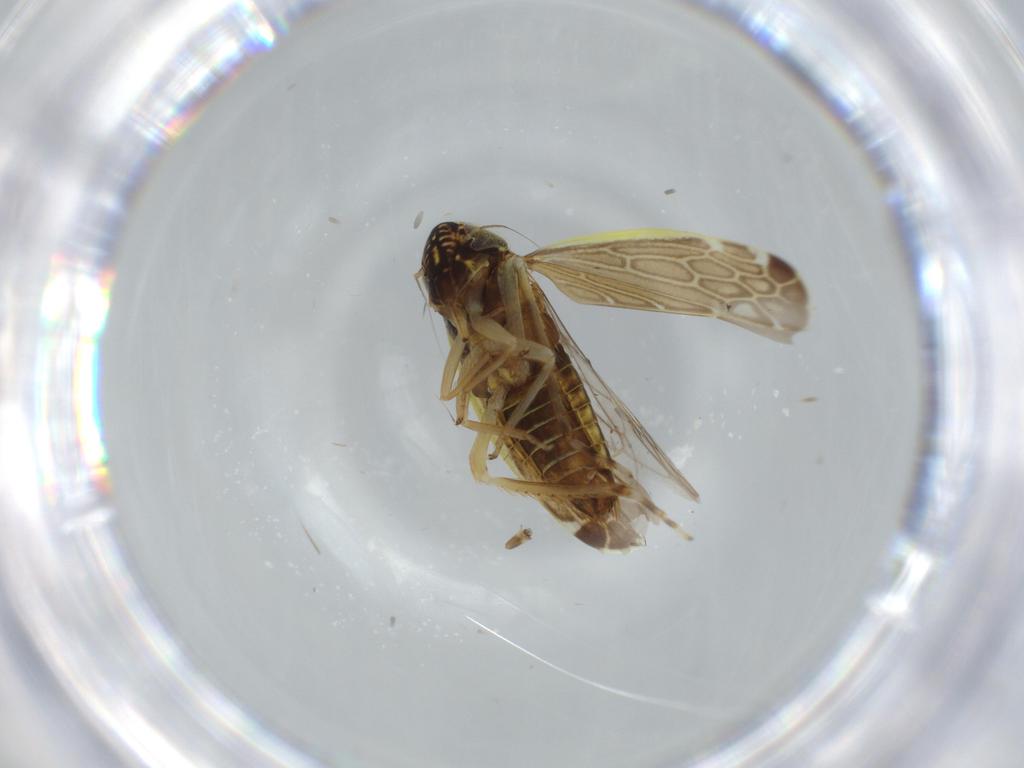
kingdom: Animalia
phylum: Arthropoda
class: Insecta
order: Hemiptera
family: Cicadellidae
